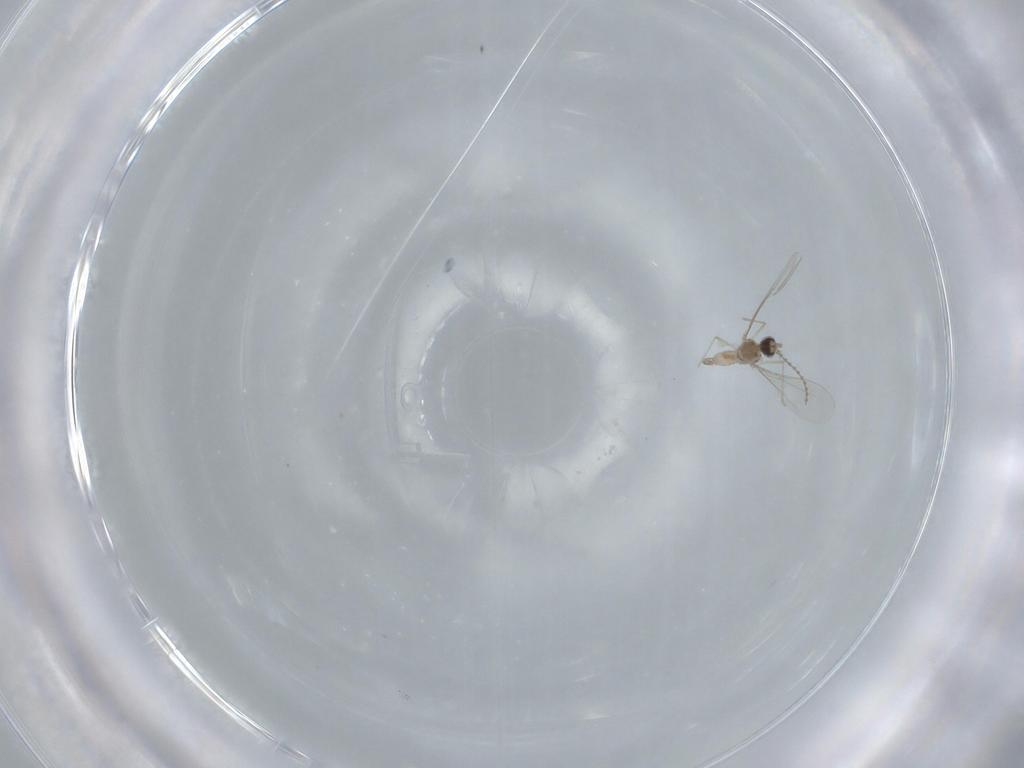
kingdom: Animalia
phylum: Arthropoda
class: Insecta
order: Diptera
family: Cecidomyiidae
